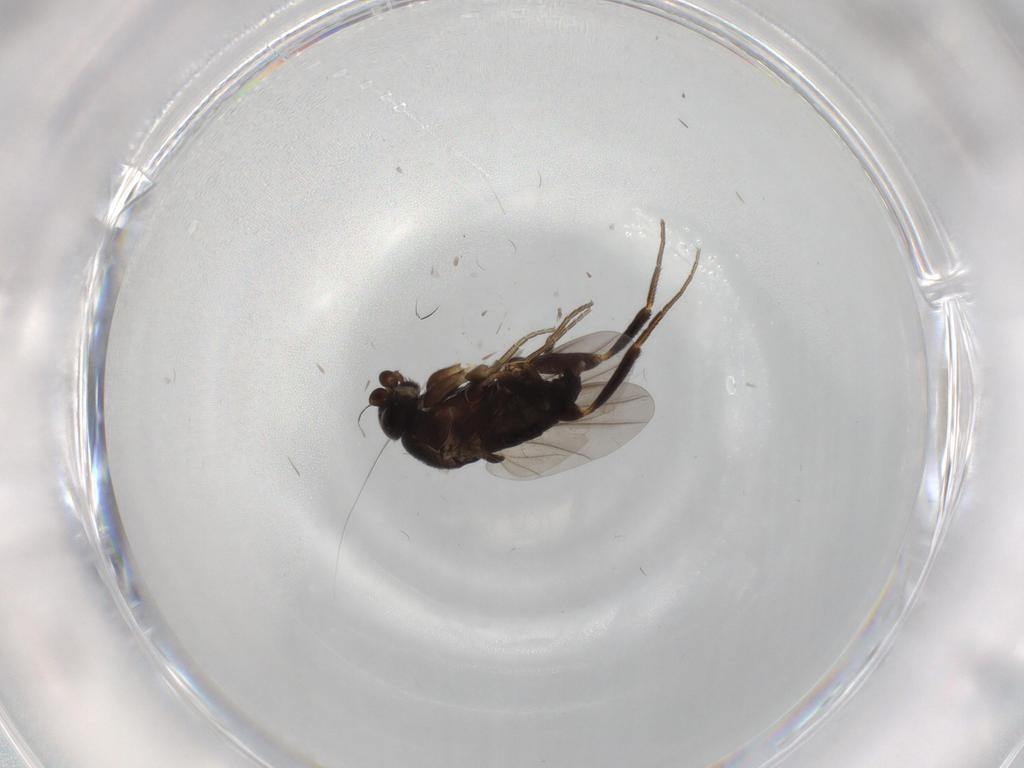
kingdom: Animalia
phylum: Arthropoda
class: Insecta
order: Diptera
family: Phoridae
